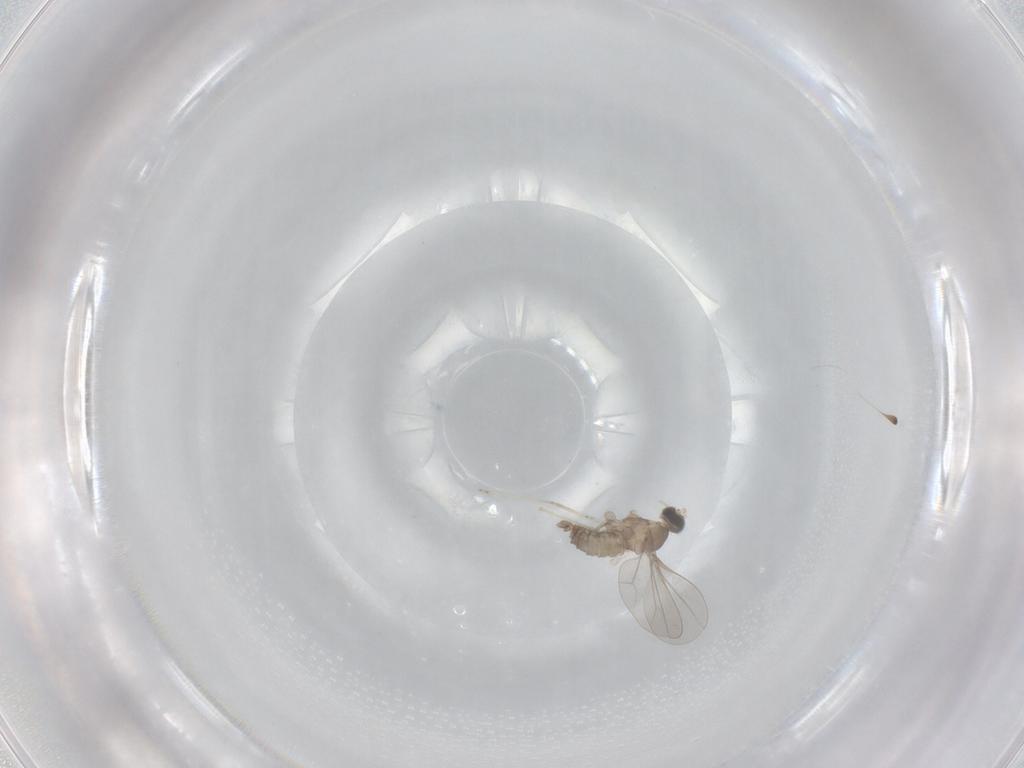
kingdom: Animalia
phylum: Arthropoda
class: Insecta
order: Diptera
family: Cecidomyiidae
